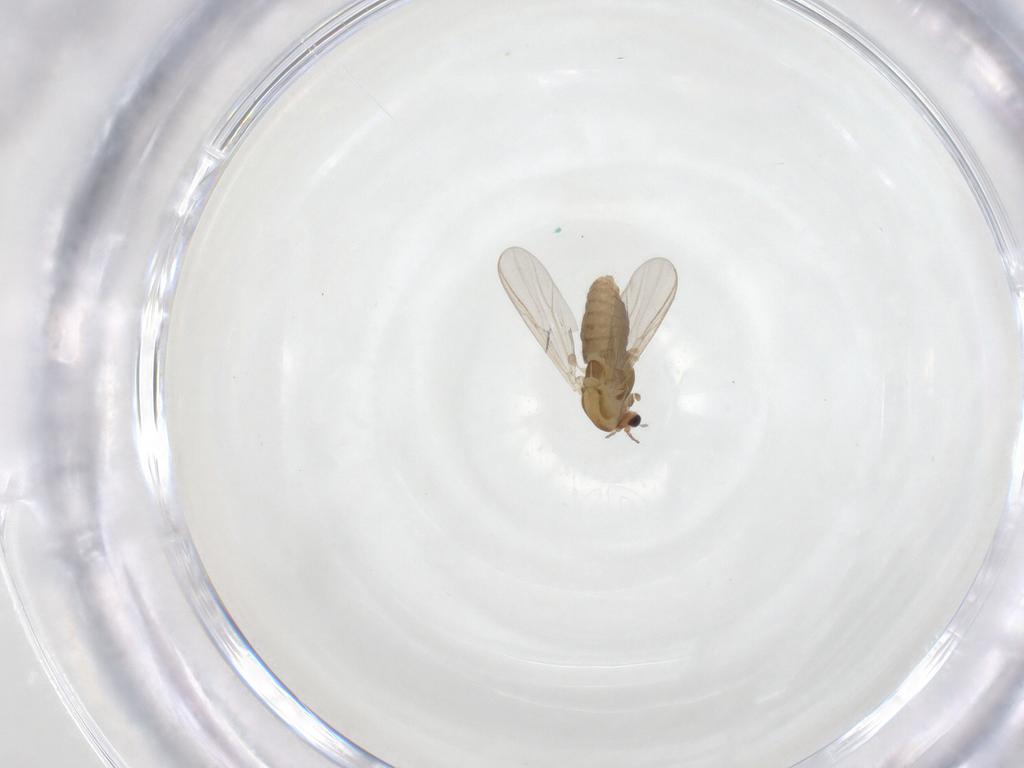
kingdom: Animalia
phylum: Arthropoda
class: Insecta
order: Diptera
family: Chironomidae
